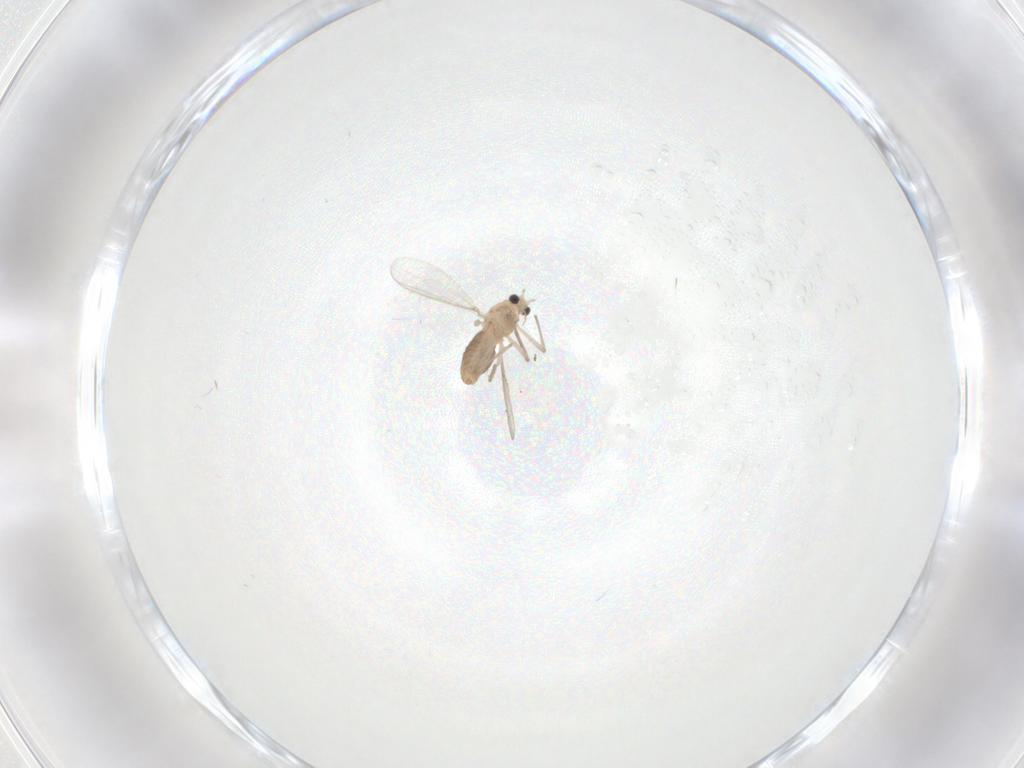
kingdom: Animalia
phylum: Arthropoda
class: Insecta
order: Diptera
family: Chironomidae
